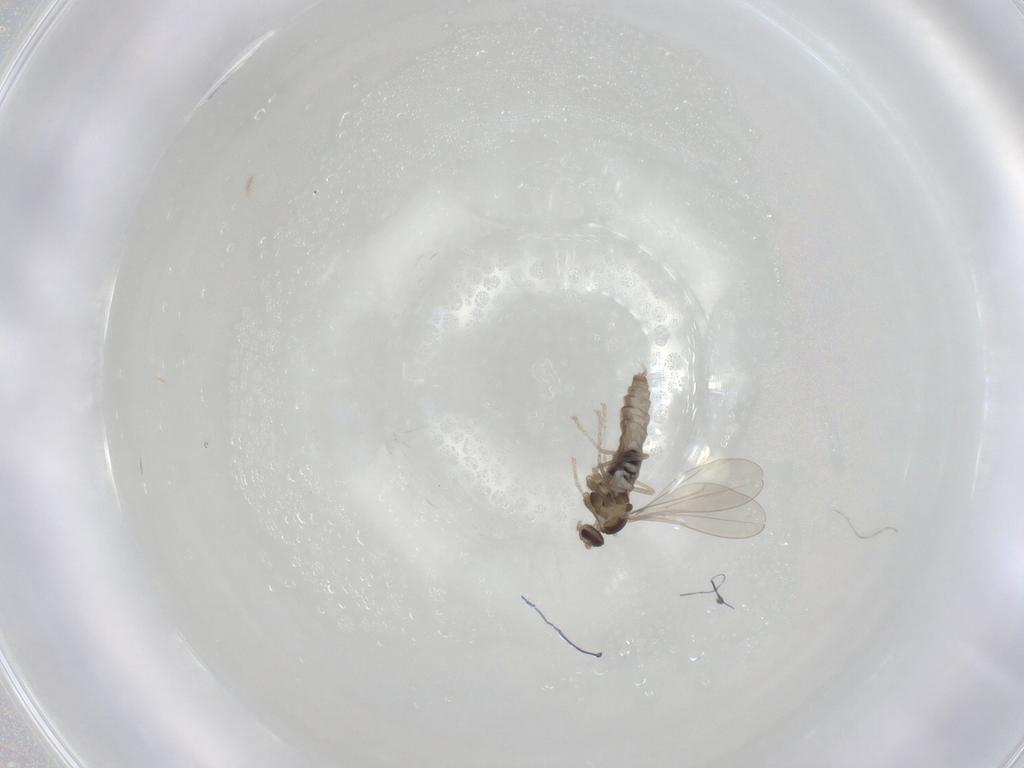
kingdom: Animalia
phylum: Arthropoda
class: Insecta
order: Diptera
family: Cecidomyiidae
